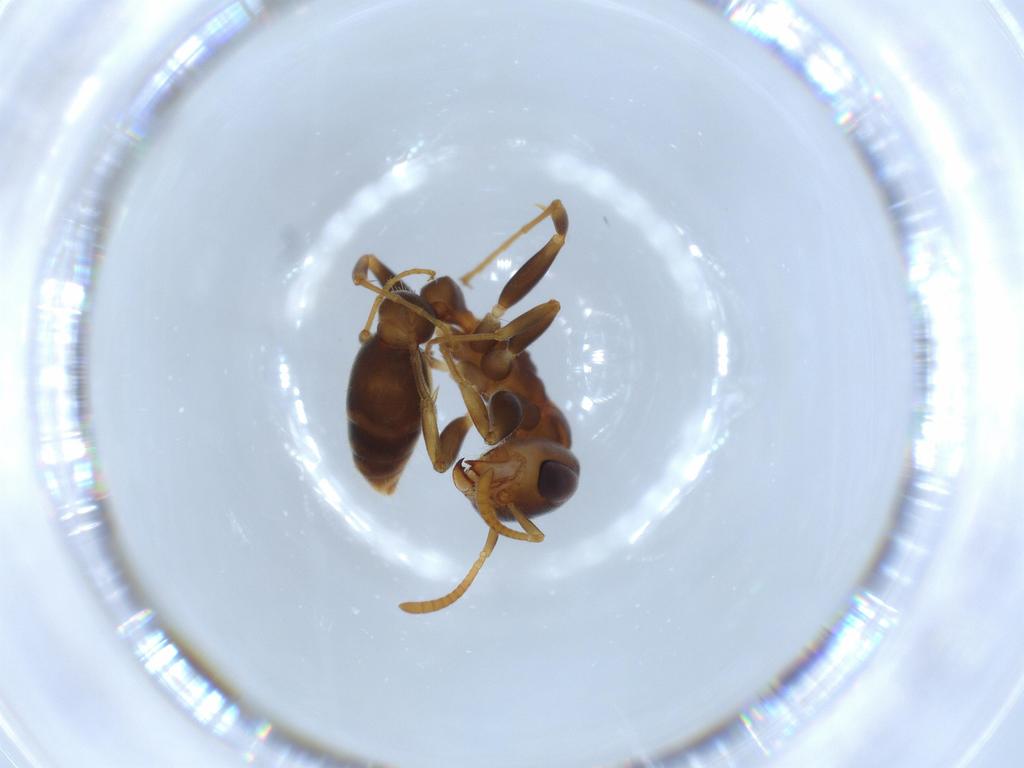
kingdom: Animalia
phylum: Arthropoda
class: Insecta
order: Hymenoptera
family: Formicidae
